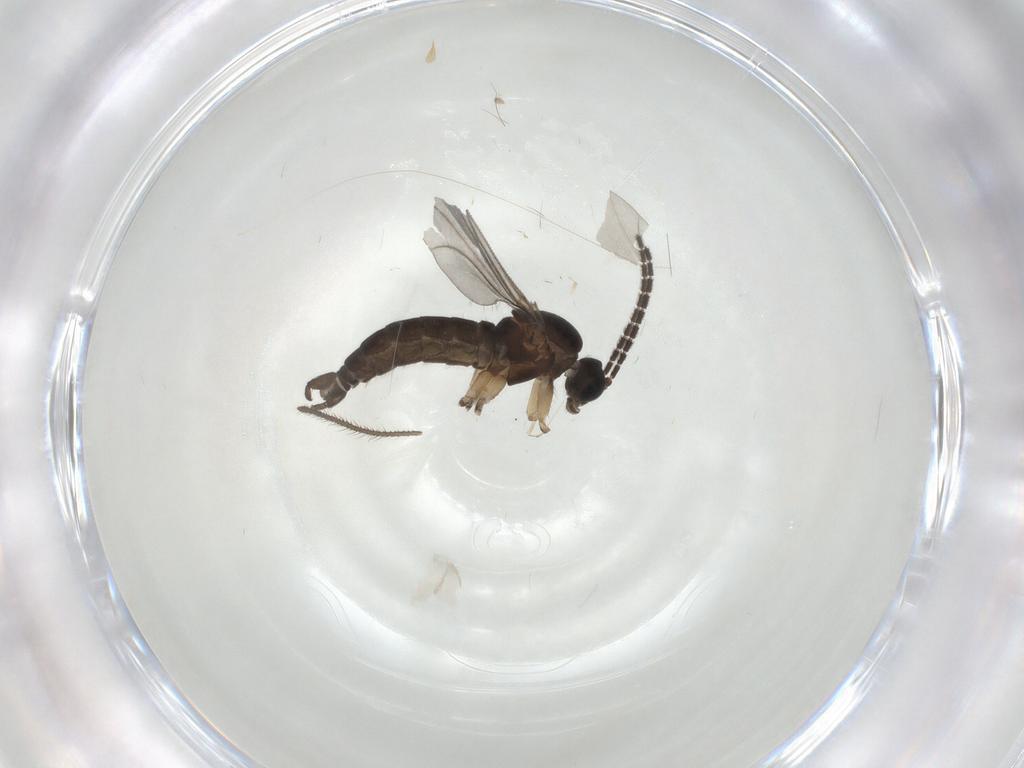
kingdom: Animalia
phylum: Arthropoda
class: Insecta
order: Diptera
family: Sciaridae
